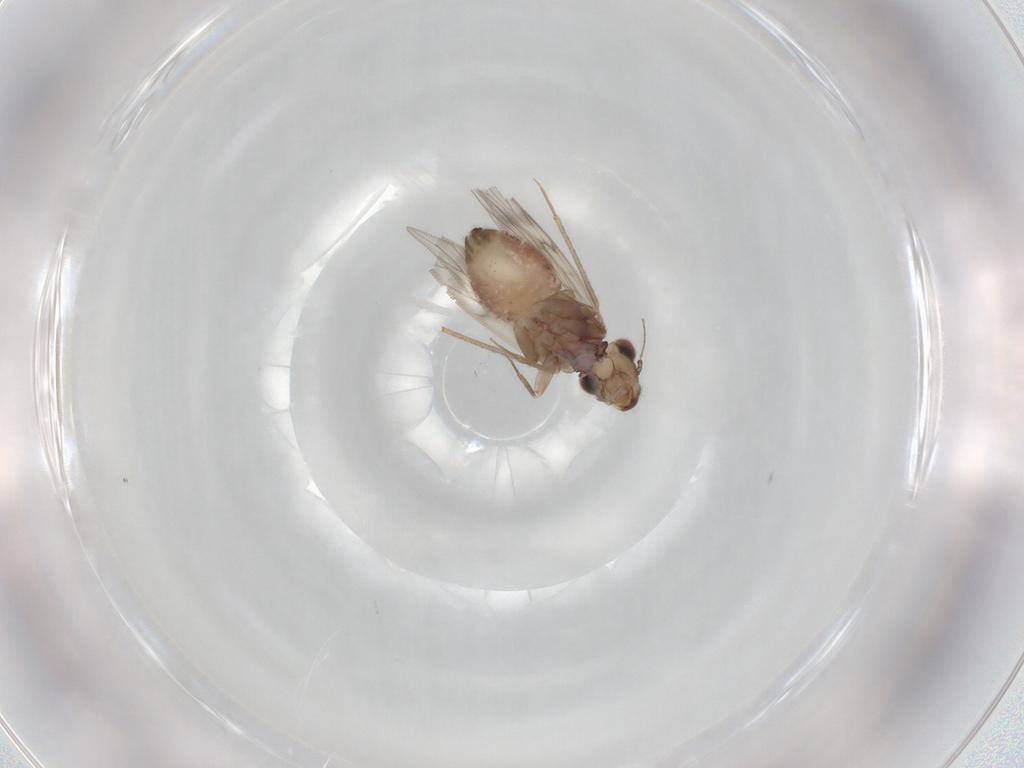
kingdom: Animalia
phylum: Arthropoda
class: Insecta
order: Psocodea
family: Lepidopsocidae
